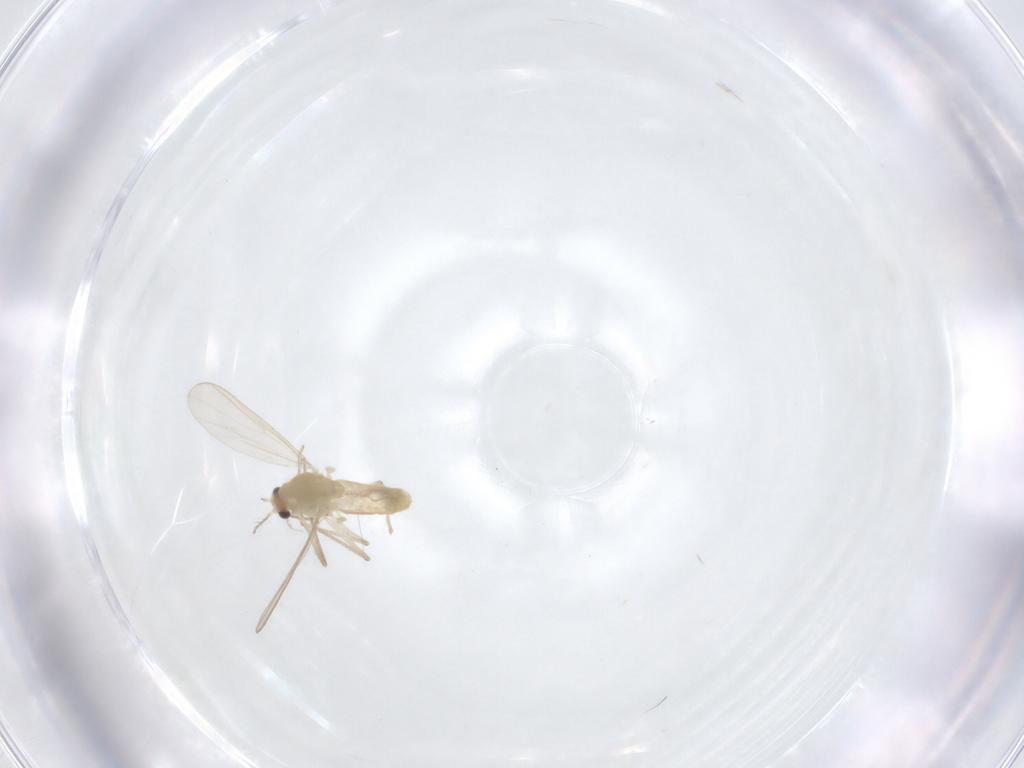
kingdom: Animalia
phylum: Arthropoda
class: Insecta
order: Diptera
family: Chironomidae
